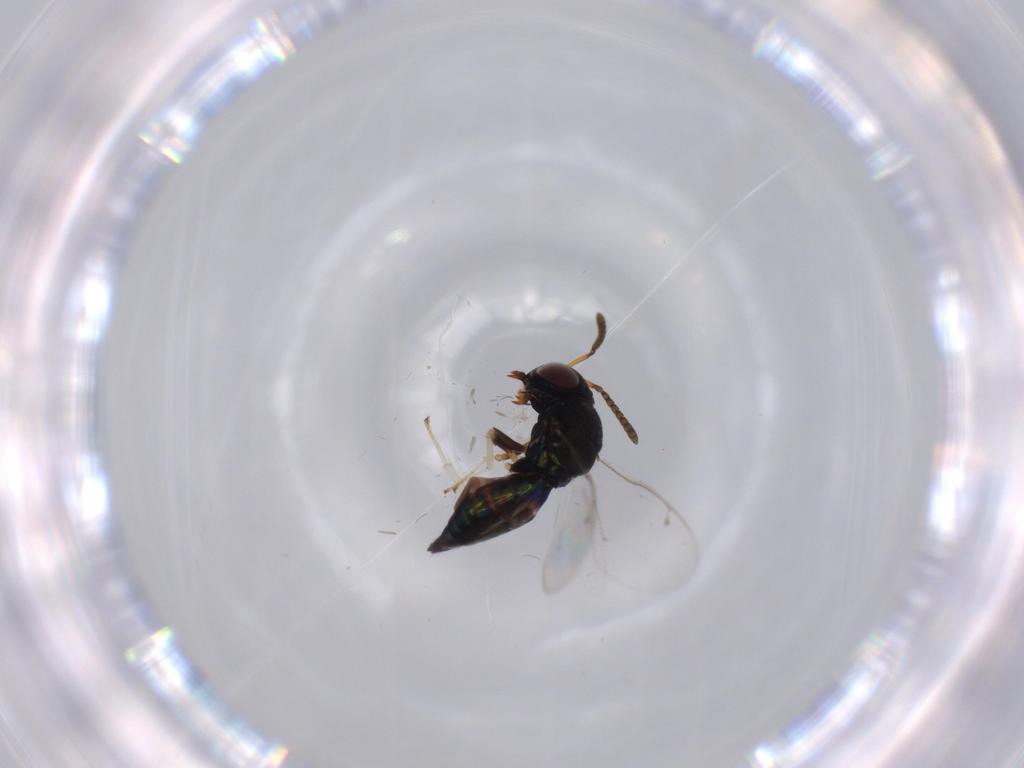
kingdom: Animalia
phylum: Arthropoda
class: Insecta
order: Hymenoptera
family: Pteromalidae
